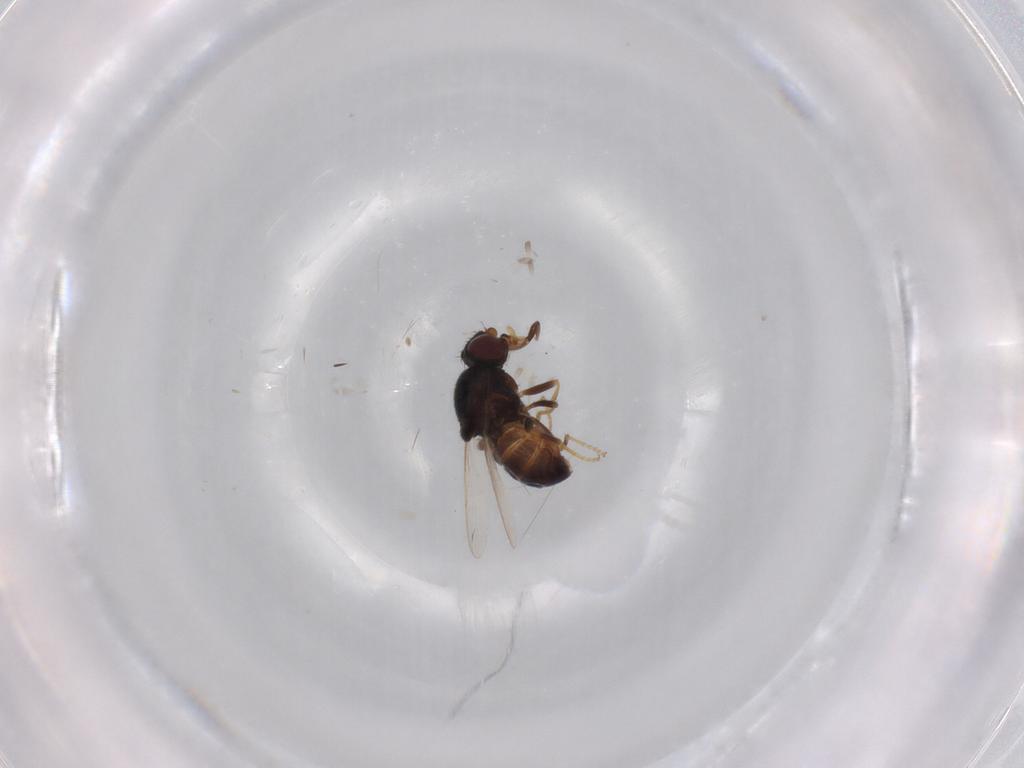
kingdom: Animalia
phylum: Arthropoda
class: Insecta
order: Diptera
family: Chloropidae
